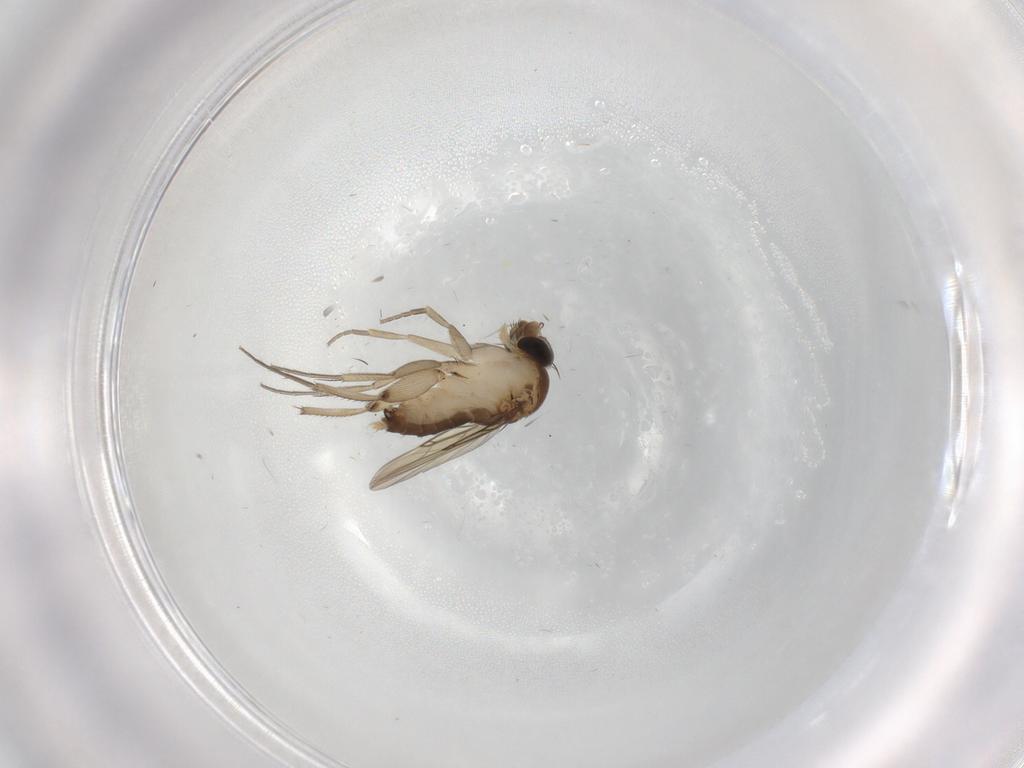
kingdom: Animalia
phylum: Arthropoda
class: Insecta
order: Diptera
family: Phoridae
